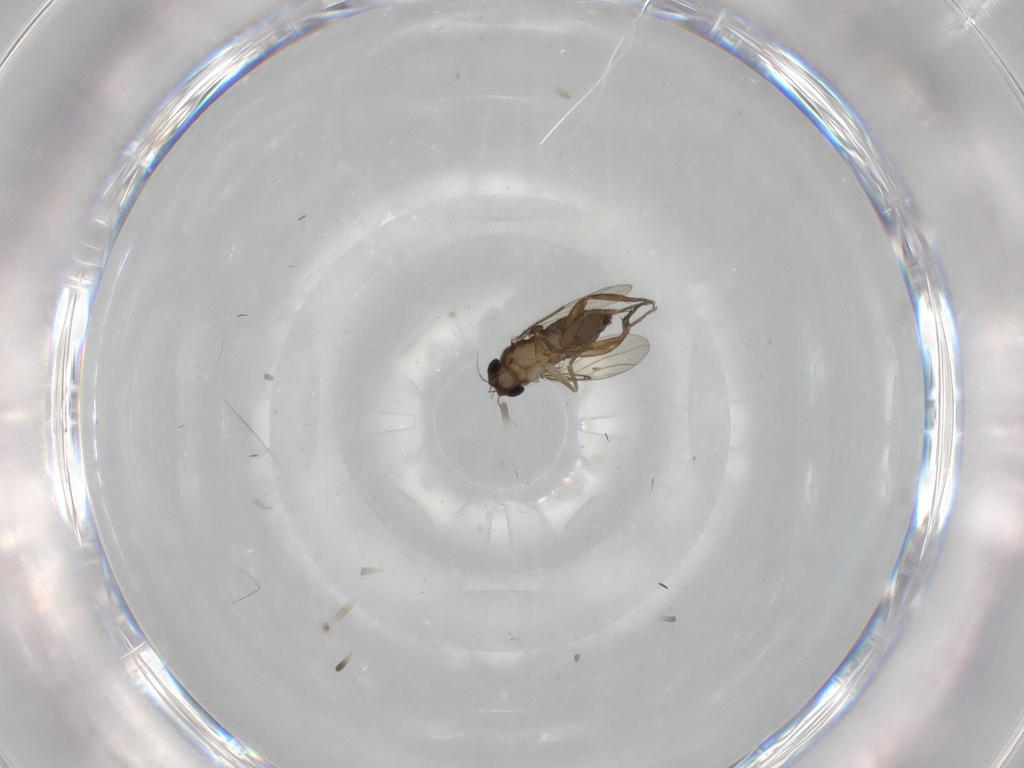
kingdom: Animalia
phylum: Arthropoda
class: Insecta
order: Diptera
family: Phoridae
